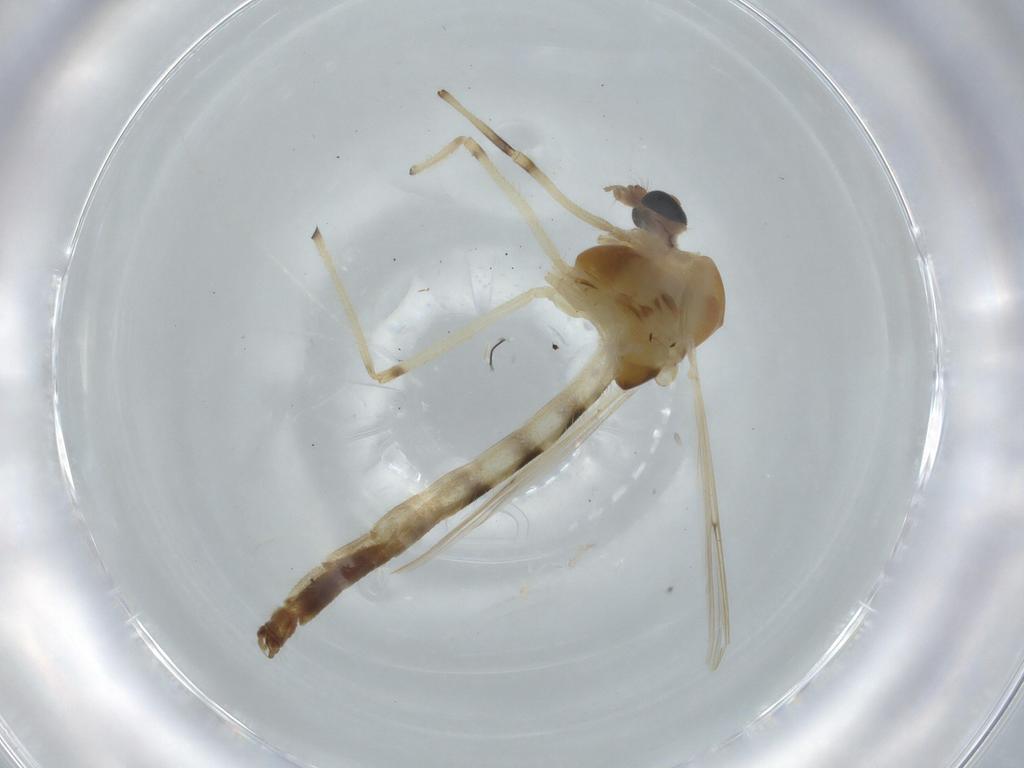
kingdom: Animalia
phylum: Arthropoda
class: Insecta
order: Diptera
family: Chironomidae
